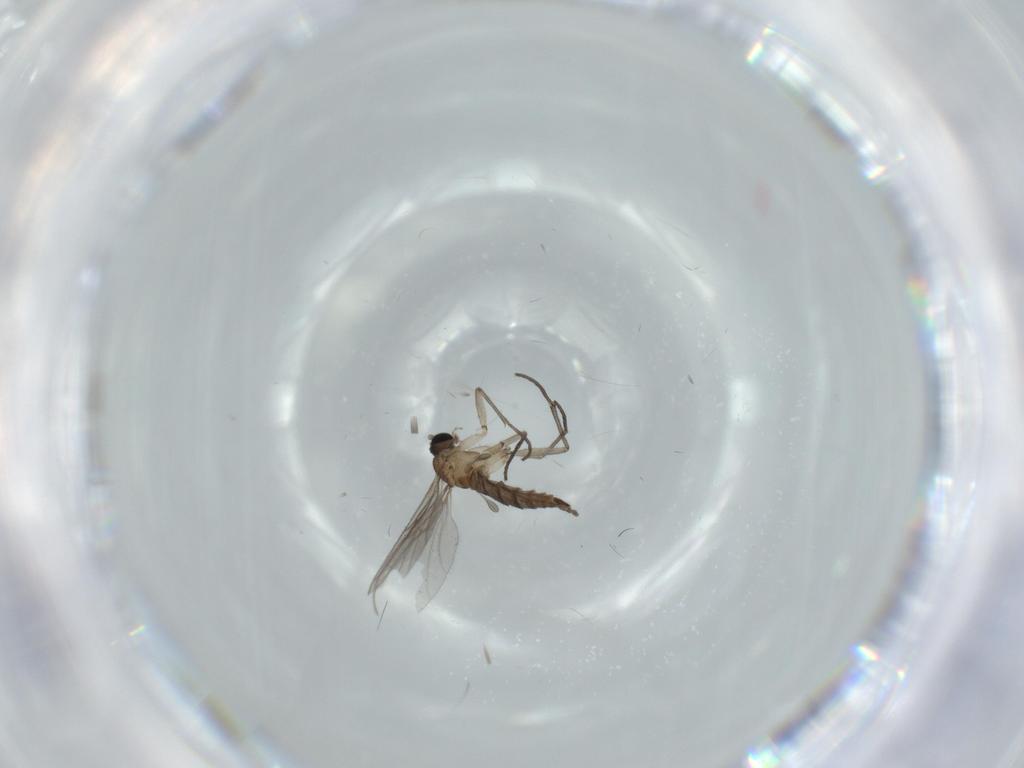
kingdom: Animalia
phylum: Arthropoda
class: Insecta
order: Diptera
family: Sciaridae
